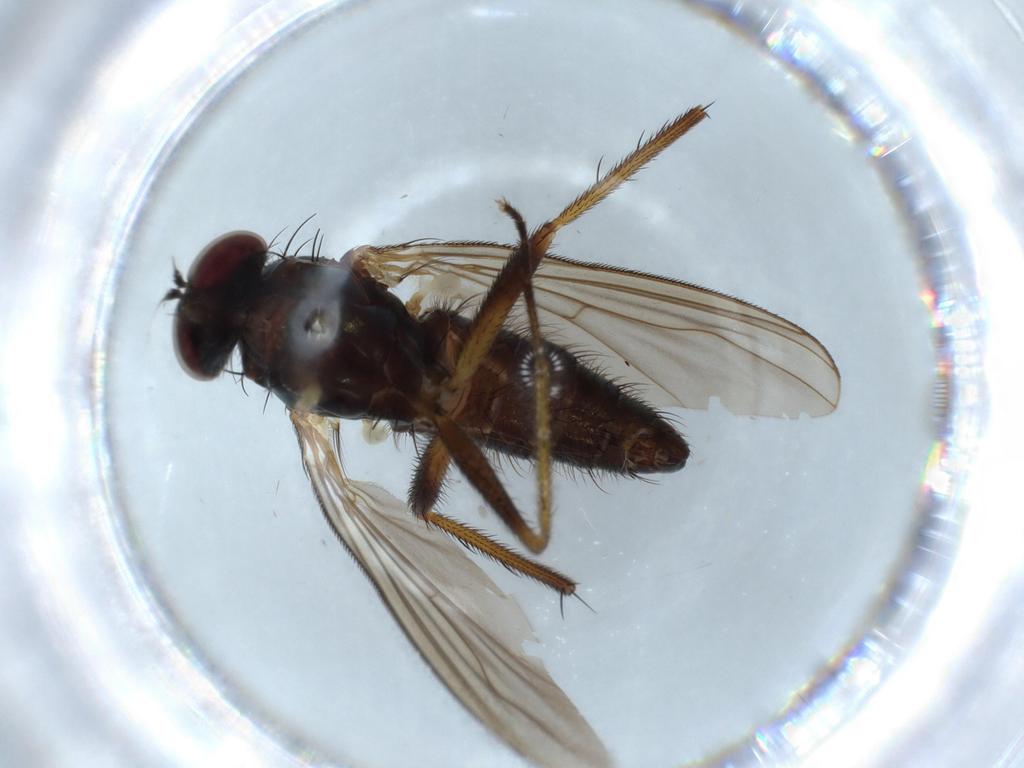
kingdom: Animalia
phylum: Arthropoda
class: Insecta
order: Diptera
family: Dolichopodidae
